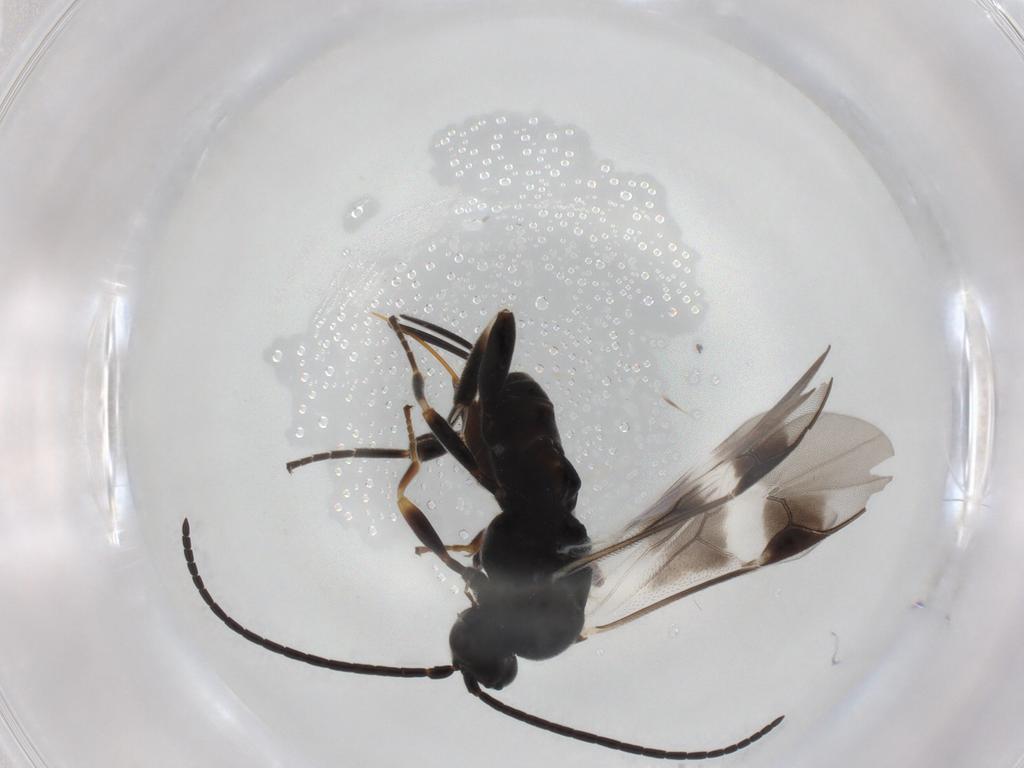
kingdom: Animalia
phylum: Arthropoda
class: Insecta
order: Hymenoptera
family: Braconidae
